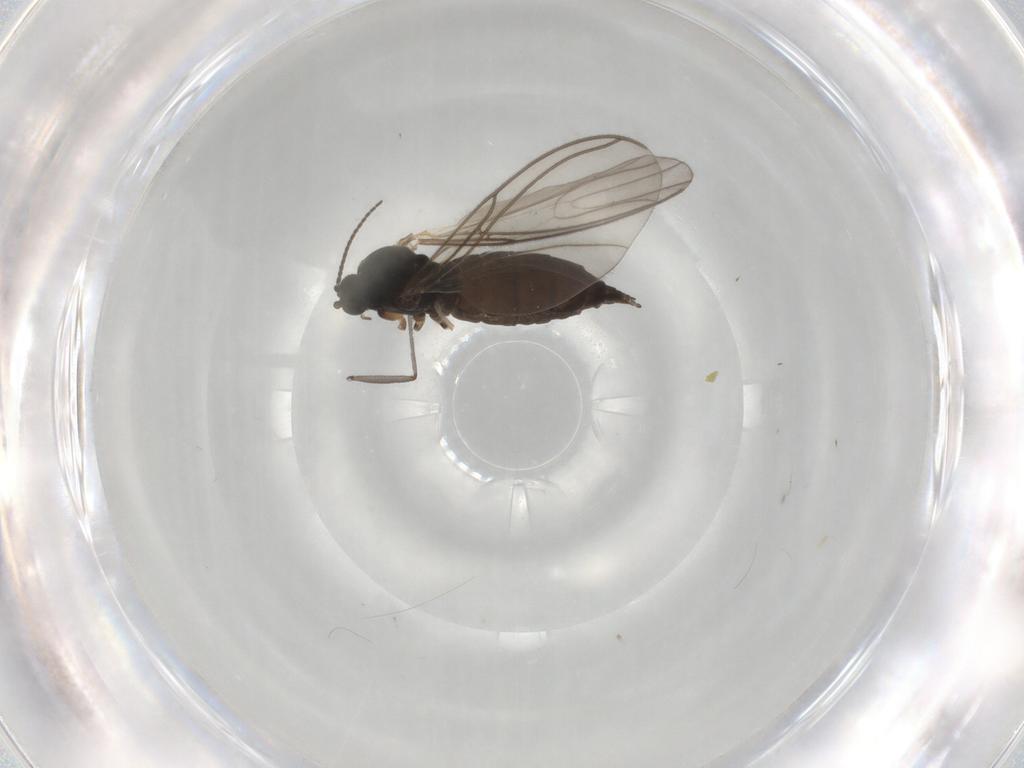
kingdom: Animalia
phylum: Arthropoda
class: Insecta
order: Diptera
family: Sciaridae
